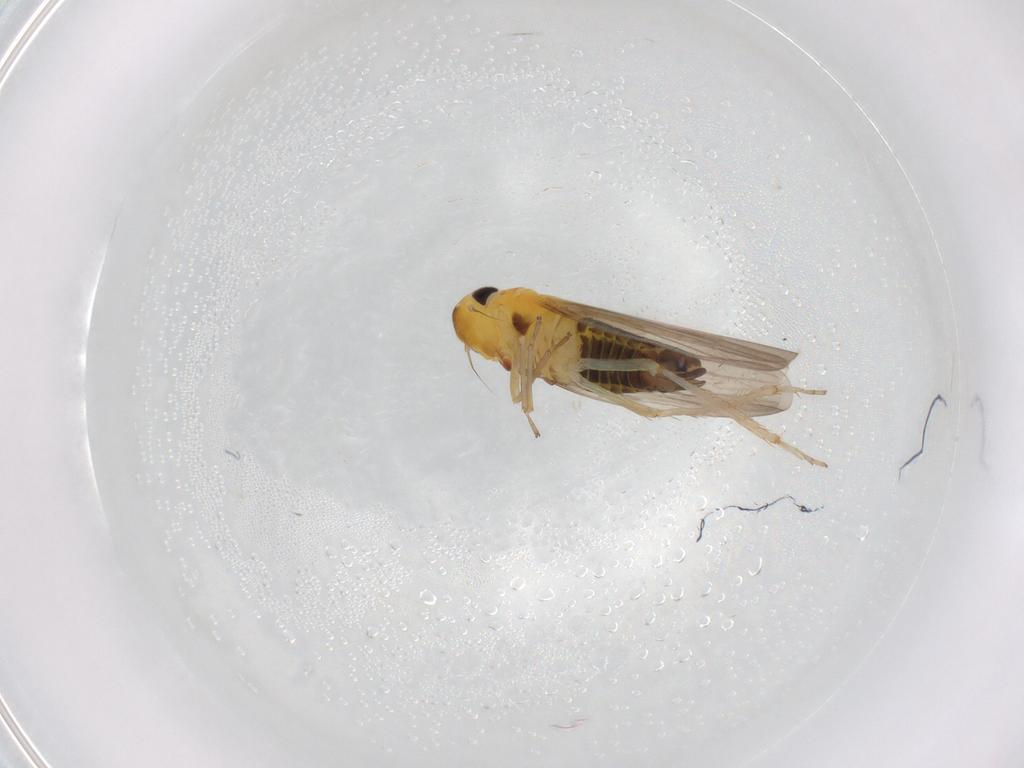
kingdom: Animalia
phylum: Arthropoda
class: Insecta
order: Hemiptera
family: Cicadellidae
